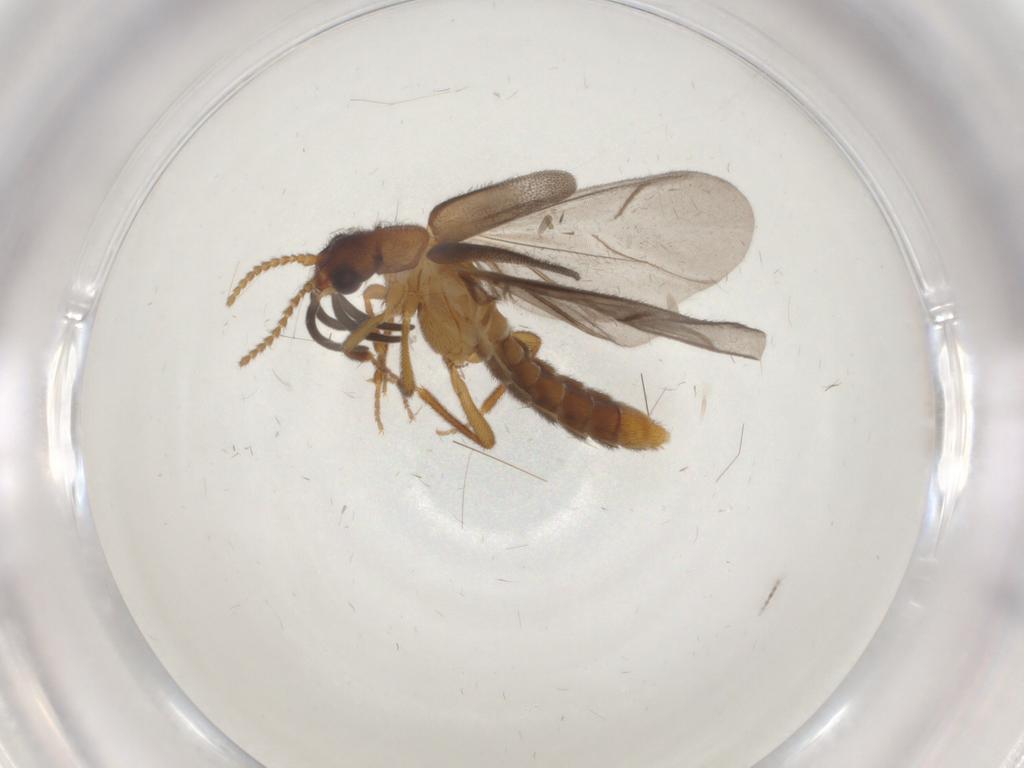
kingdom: Animalia
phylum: Arthropoda
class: Insecta
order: Coleoptera
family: Omethidae
